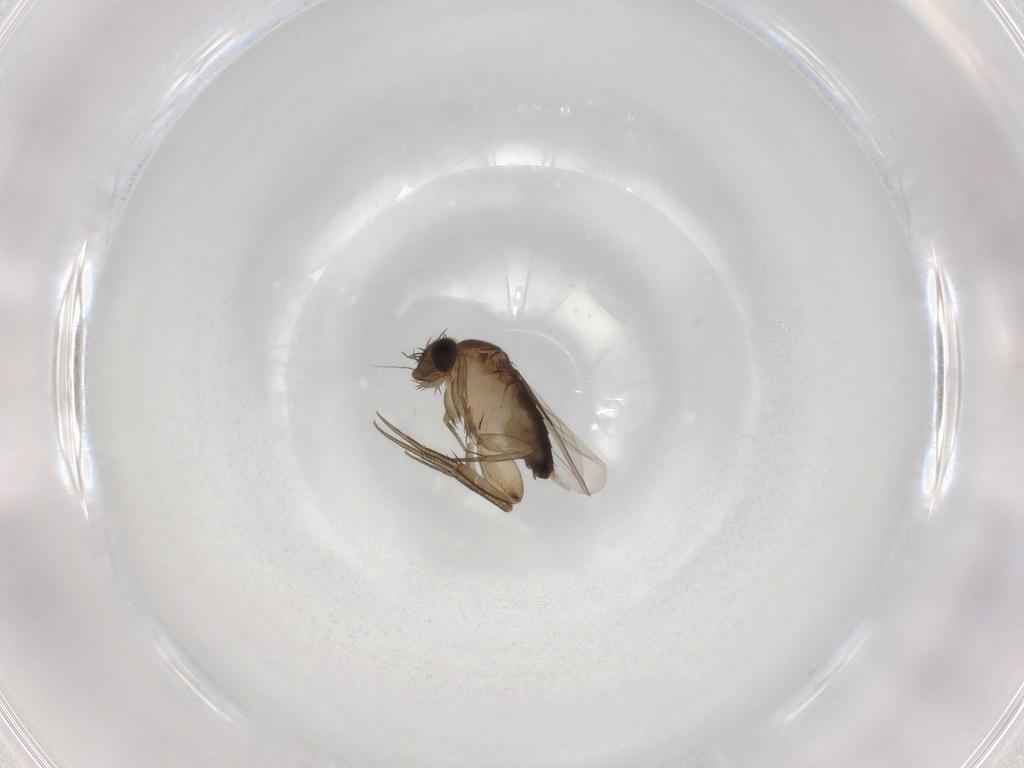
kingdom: Animalia
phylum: Arthropoda
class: Insecta
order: Diptera
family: Phoridae
